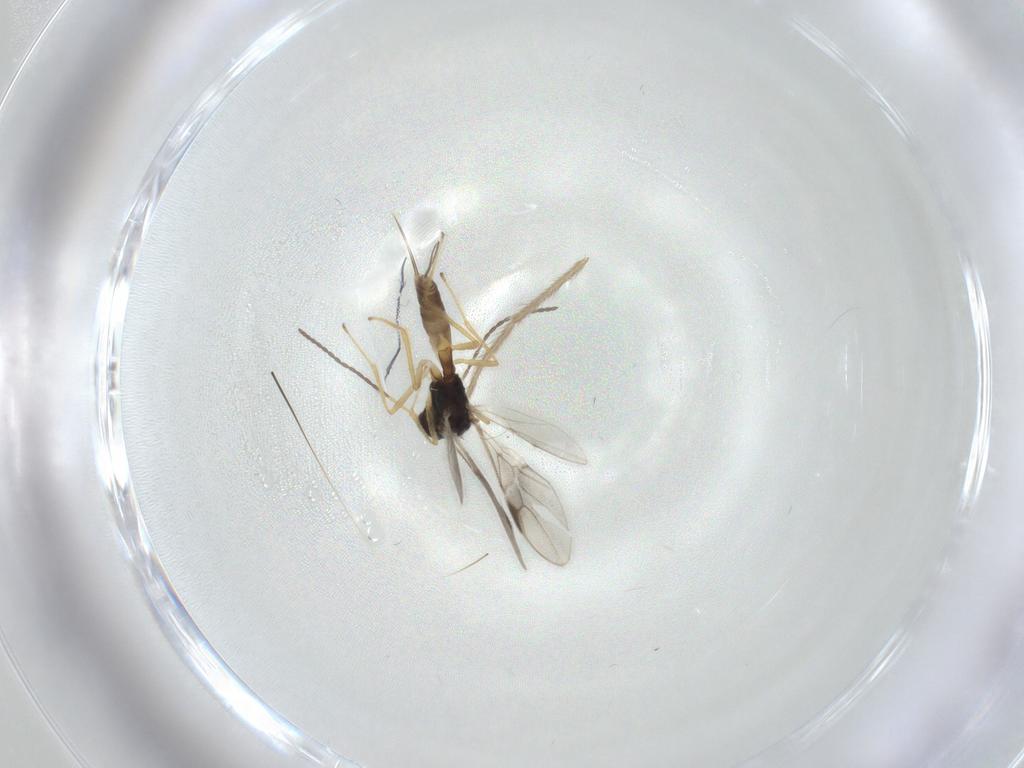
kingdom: Animalia
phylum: Arthropoda
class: Insecta
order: Hymenoptera
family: Braconidae
